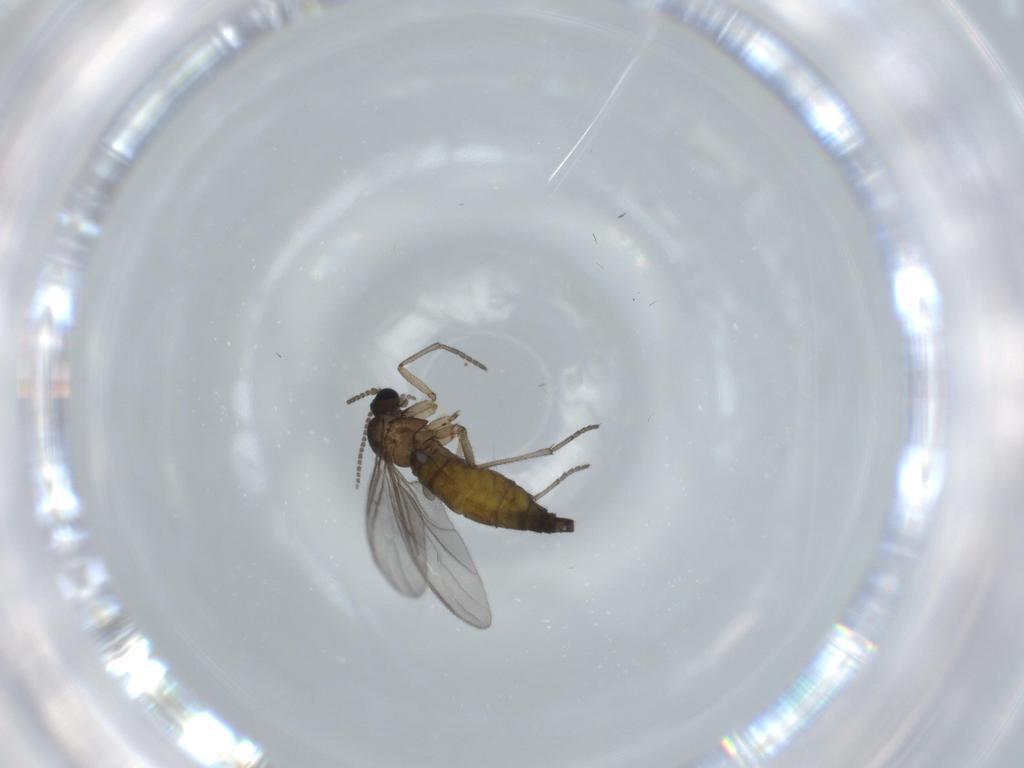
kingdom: Animalia
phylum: Arthropoda
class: Insecta
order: Diptera
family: Sciaridae
